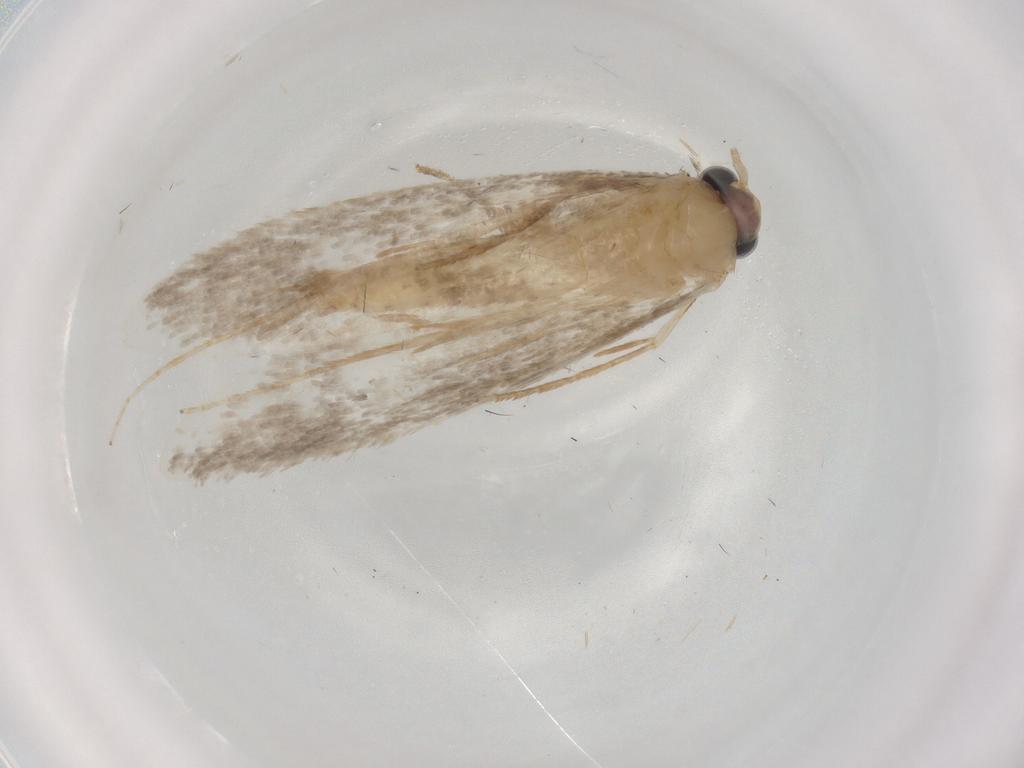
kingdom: Animalia
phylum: Arthropoda
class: Insecta
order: Lepidoptera
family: Tineidae
